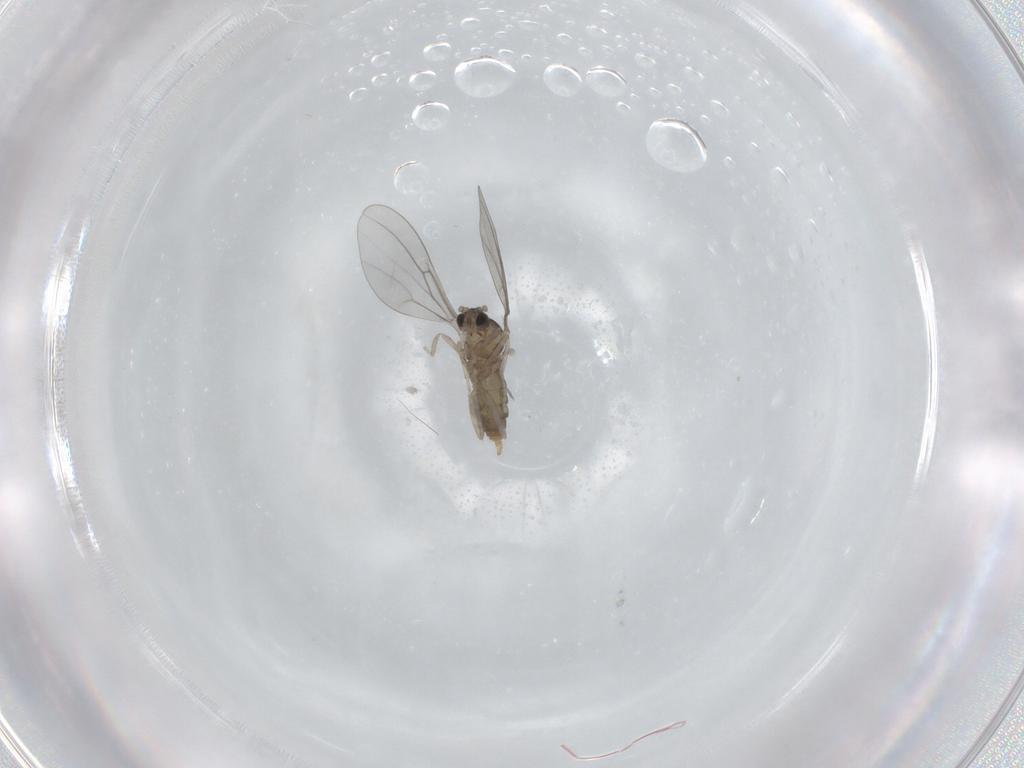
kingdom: Animalia
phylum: Arthropoda
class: Insecta
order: Diptera
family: Cecidomyiidae
